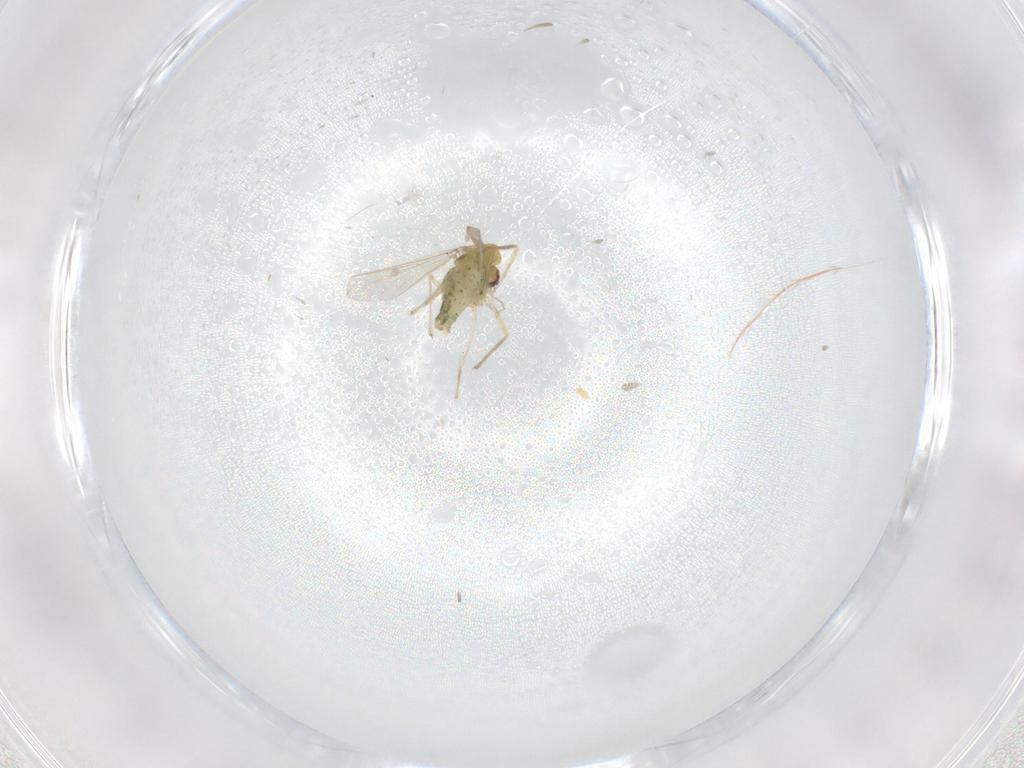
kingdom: Animalia
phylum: Arthropoda
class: Insecta
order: Diptera
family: Chironomidae
